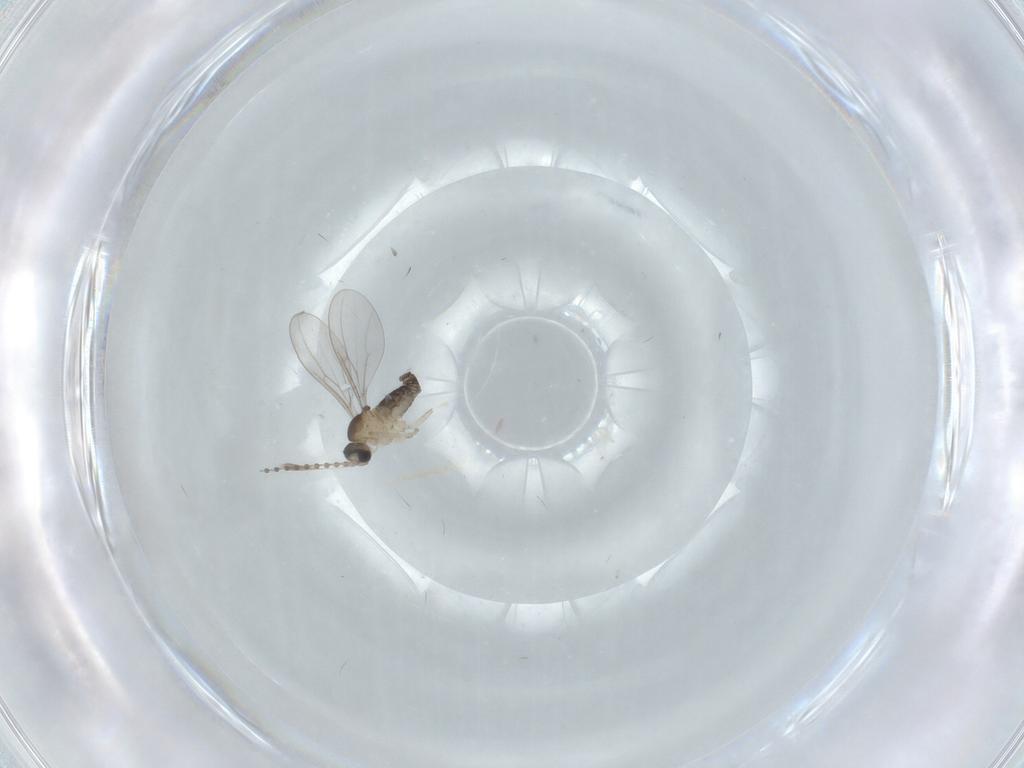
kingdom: Animalia
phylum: Arthropoda
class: Insecta
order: Diptera
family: Cecidomyiidae
